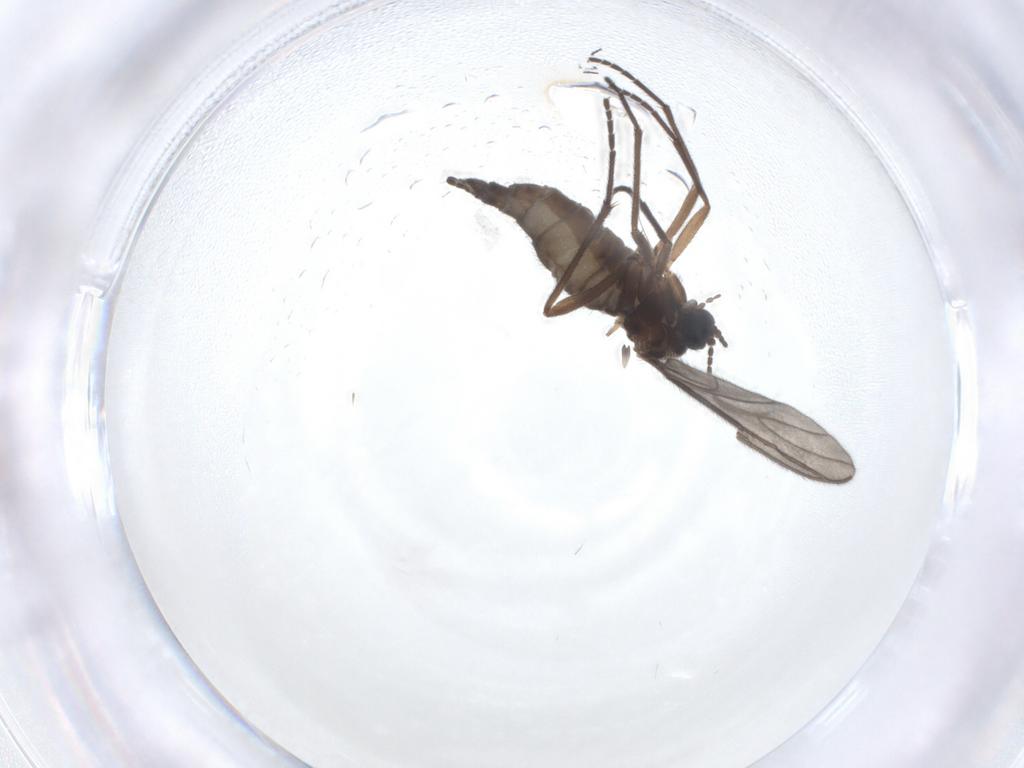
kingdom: Animalia
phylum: Arthropoda
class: Insecta
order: Diptera
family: Sciaridae
